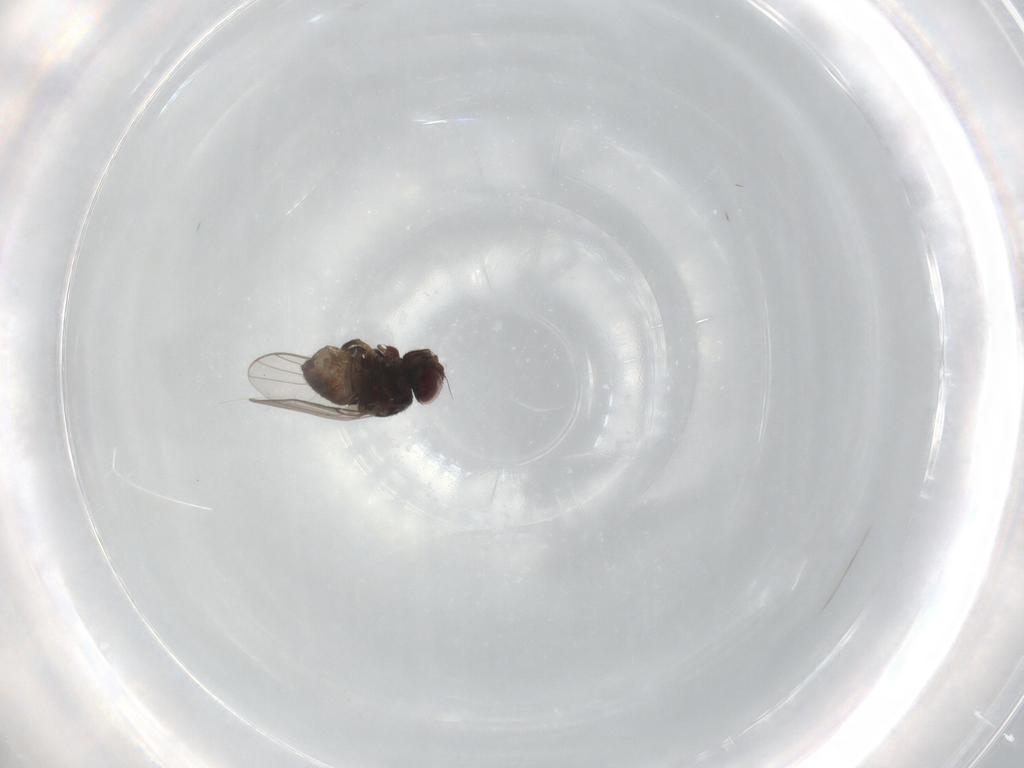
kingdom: Animalia
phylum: Arthropoda
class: Insecta
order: Diptera
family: Chloropidae
